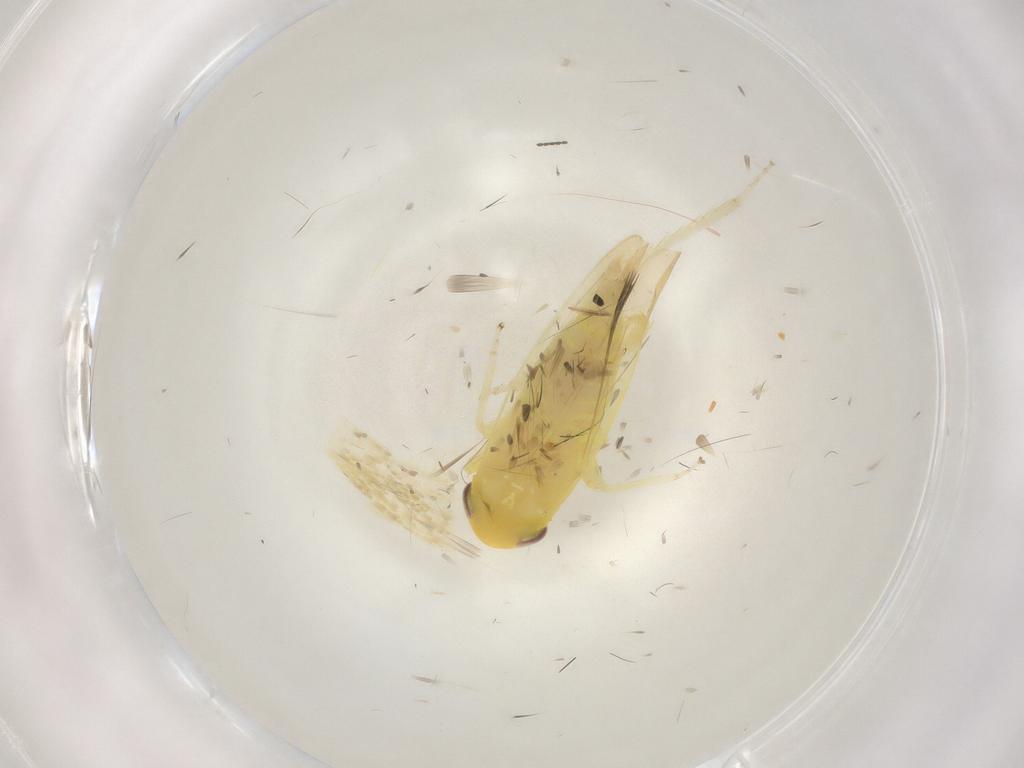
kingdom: Animalia
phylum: Arthropoda
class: Insecta
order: Hemiptera
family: Cicadellidae
